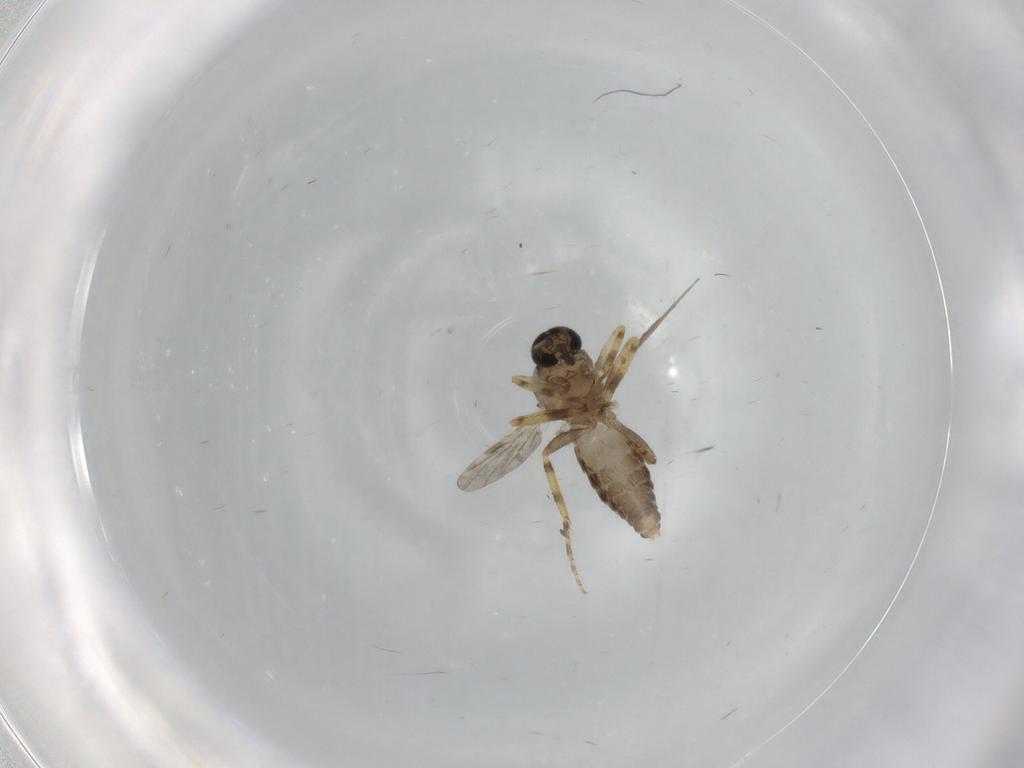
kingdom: Animalia
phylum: Arthropoda
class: Insecta
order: Diptera
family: Ceratopogonidae
